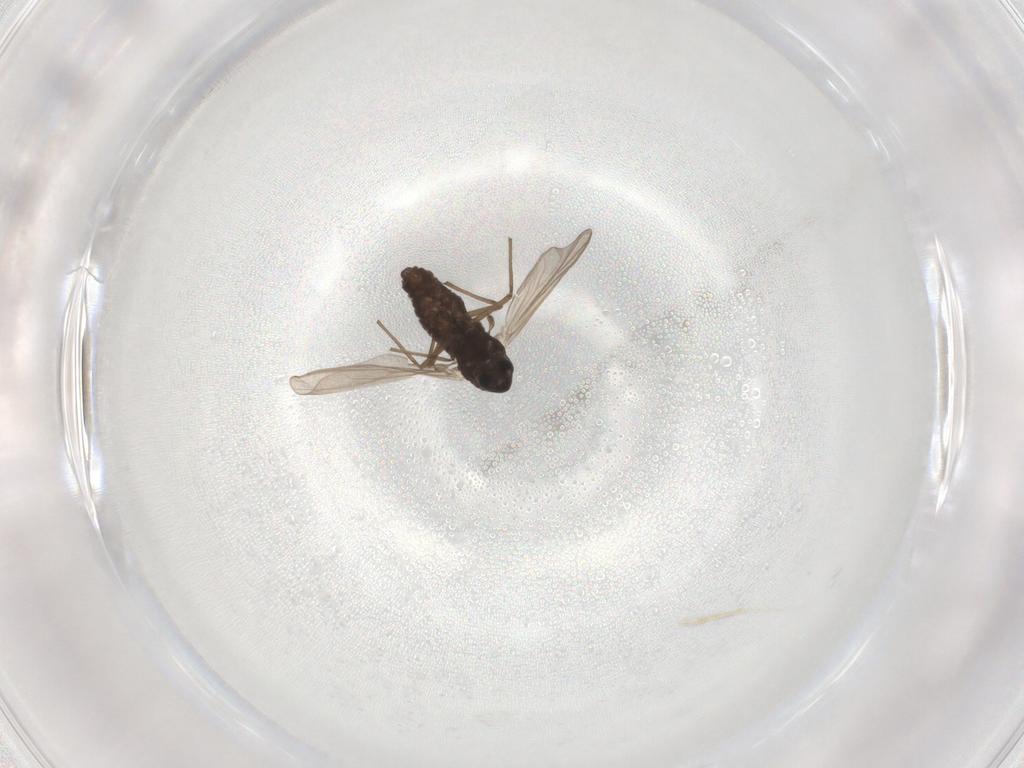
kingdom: Animalia
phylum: Arthropoda
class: Insecta
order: Diptera
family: Chironomidae
